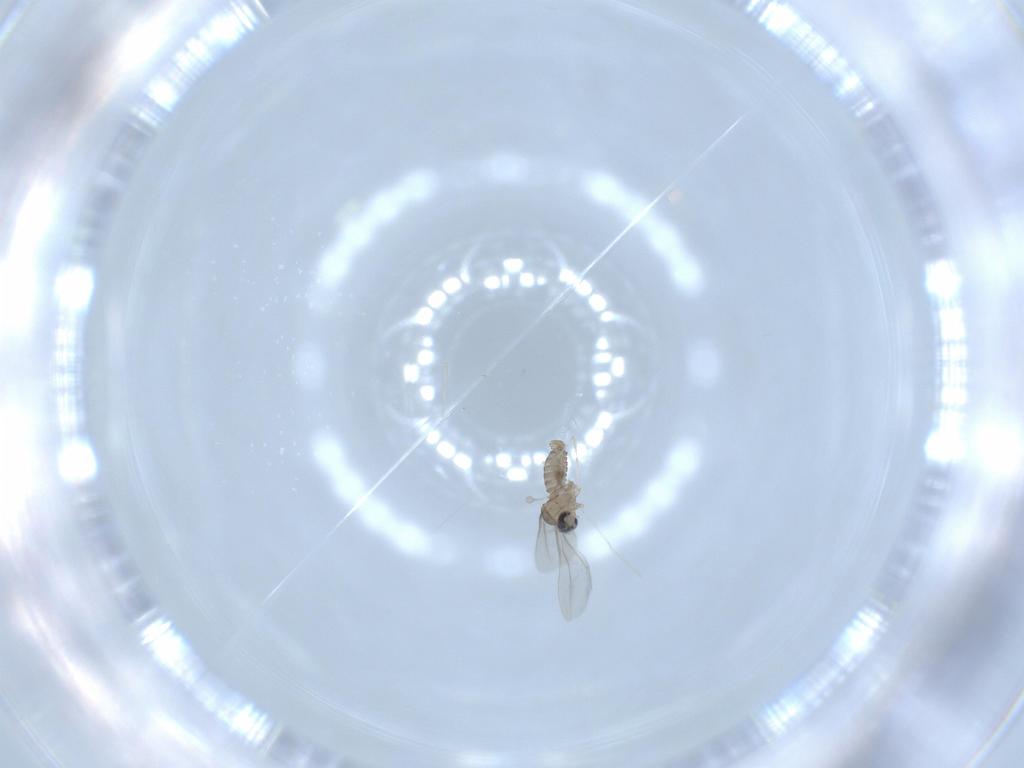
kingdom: Animalia
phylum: Arthropoda
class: Insecta
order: Diptera
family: Cecidomyiidae
